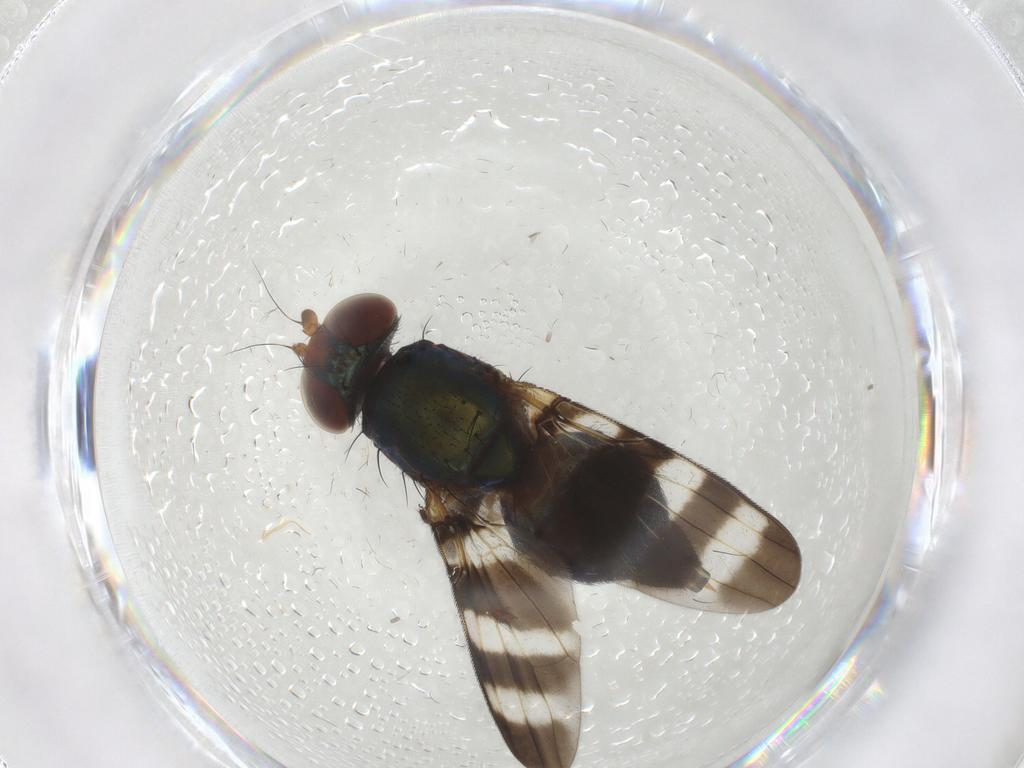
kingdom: Animalia
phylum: Arthropoda
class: Insecta
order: Diptera
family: Ulidiidae
